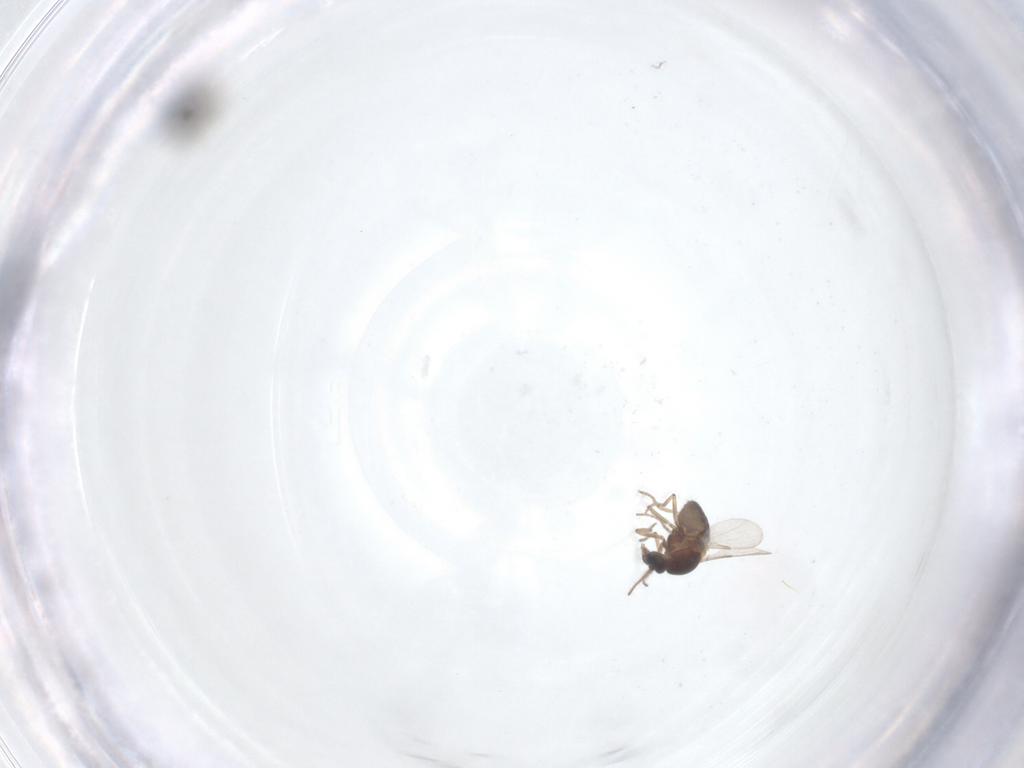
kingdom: Animalia
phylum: Arthropoda
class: Insecta
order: Diptera
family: Ceratopogonidae
